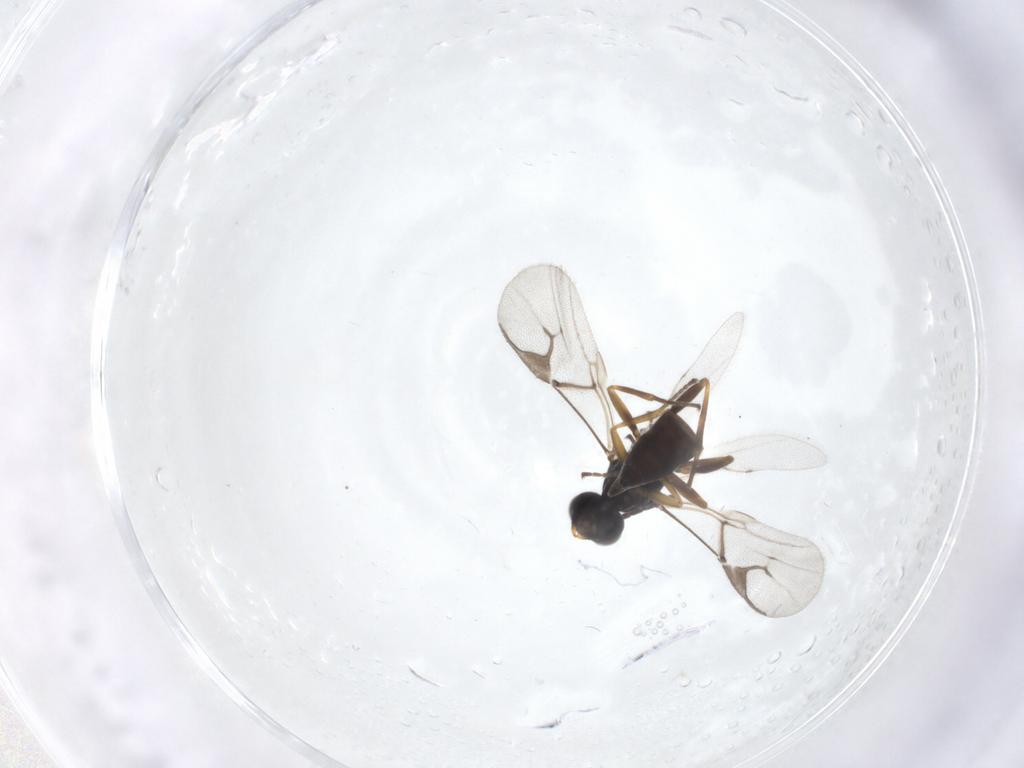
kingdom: Animalia
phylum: Arthropoda
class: Insecta
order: Hymenoptera
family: Braconidae
